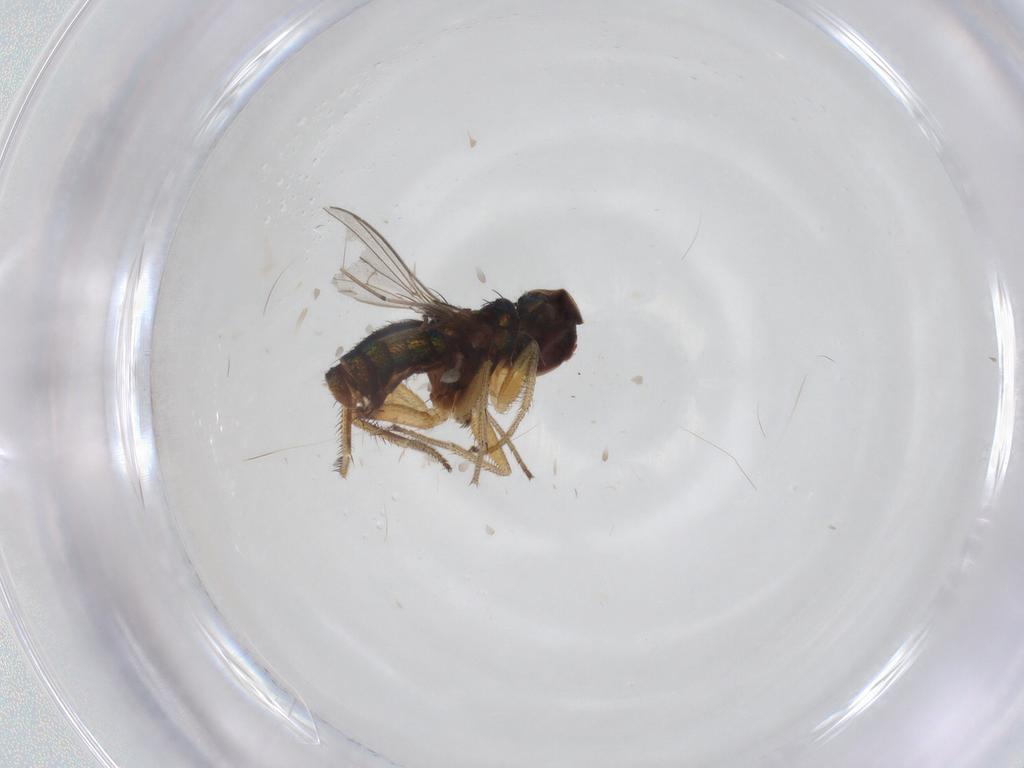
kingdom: Animalia
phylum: Arthropoda
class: Insecta
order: Diptera
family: Dolichopodidae
